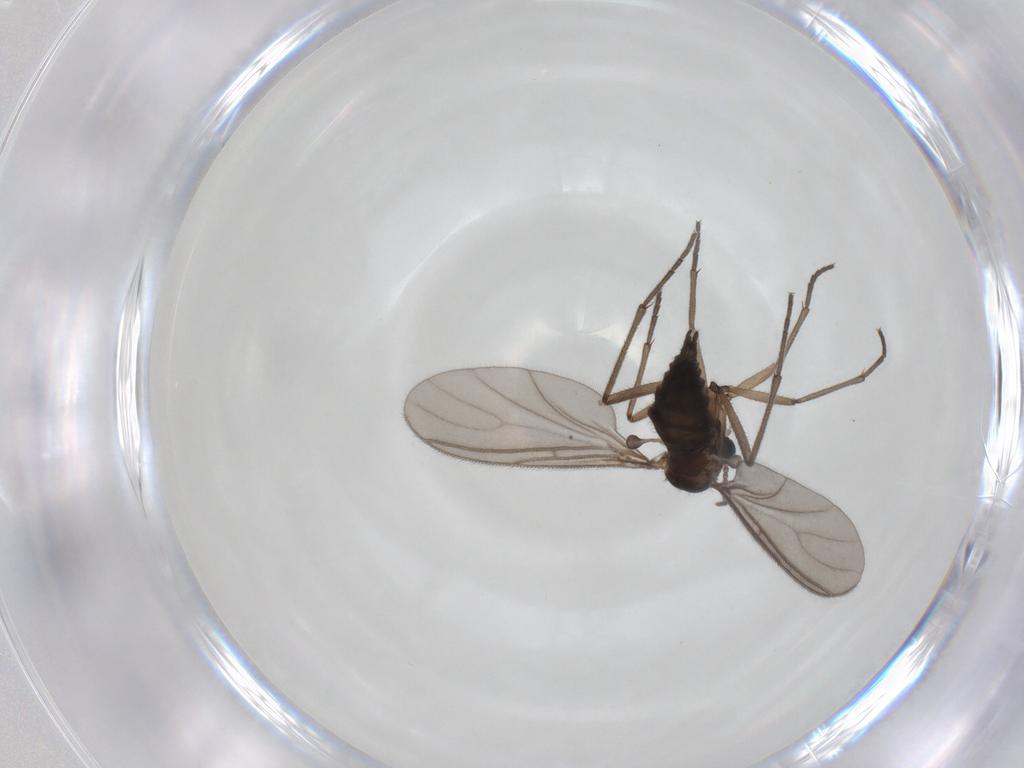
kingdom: Animalia
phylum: Arthropoda
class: Insecta
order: Diptera
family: Sciaridae
